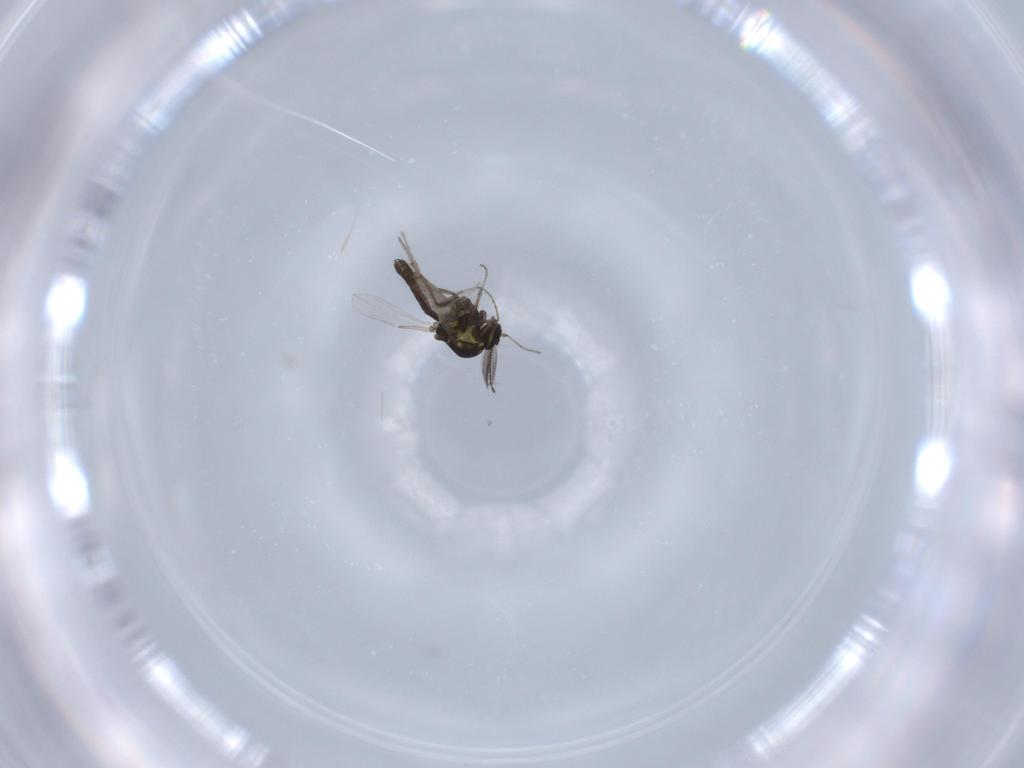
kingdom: Animalia
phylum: Arthropoda
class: Insecta
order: Diptera
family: Ceratopogonidae
